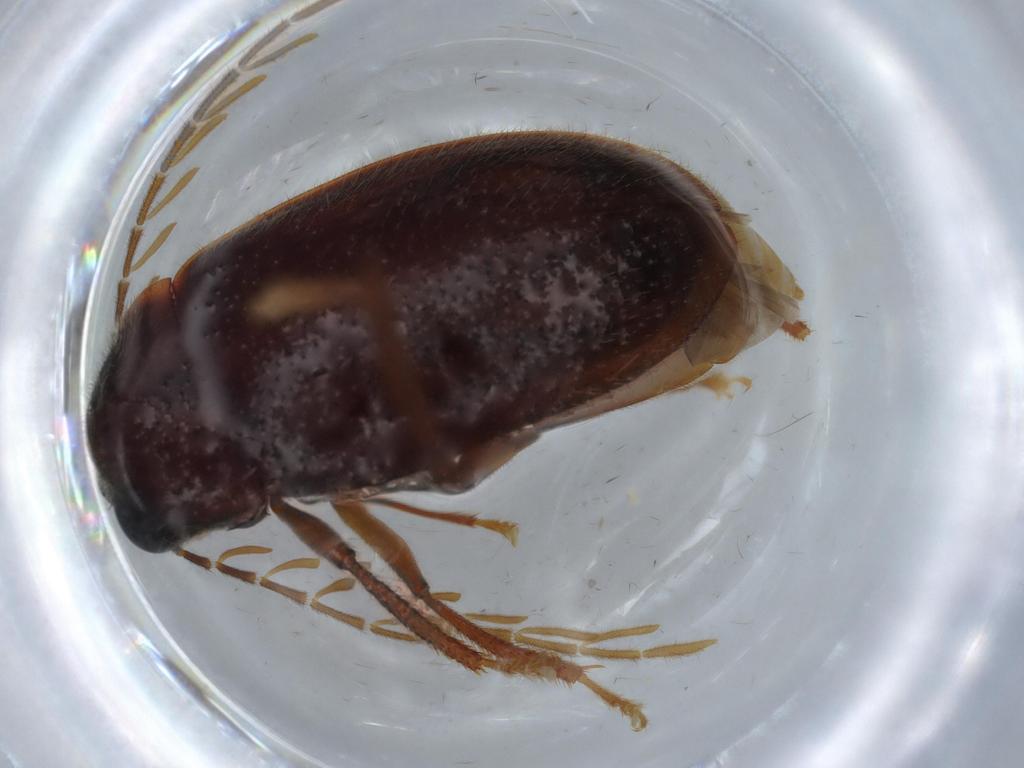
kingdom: Animalia
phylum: Arthropoda
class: Insecta
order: Coleoptera
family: Ptilodactylidae
